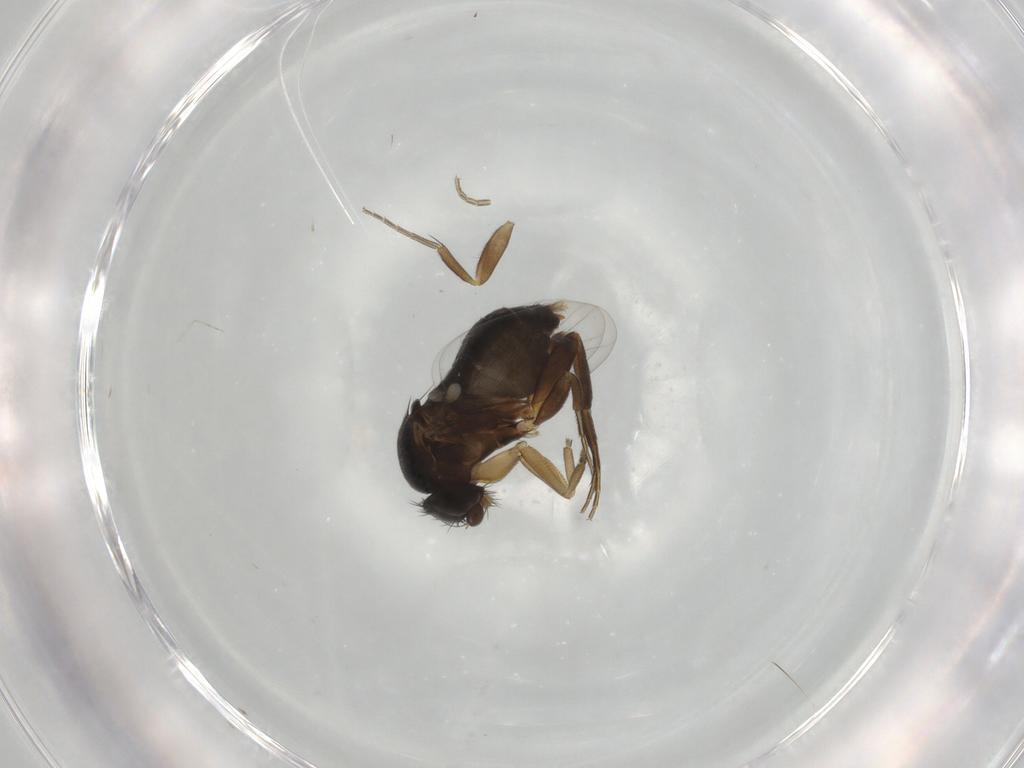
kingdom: Animalia
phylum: Arthropoda
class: Insecta
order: Diptera
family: Phoridae
